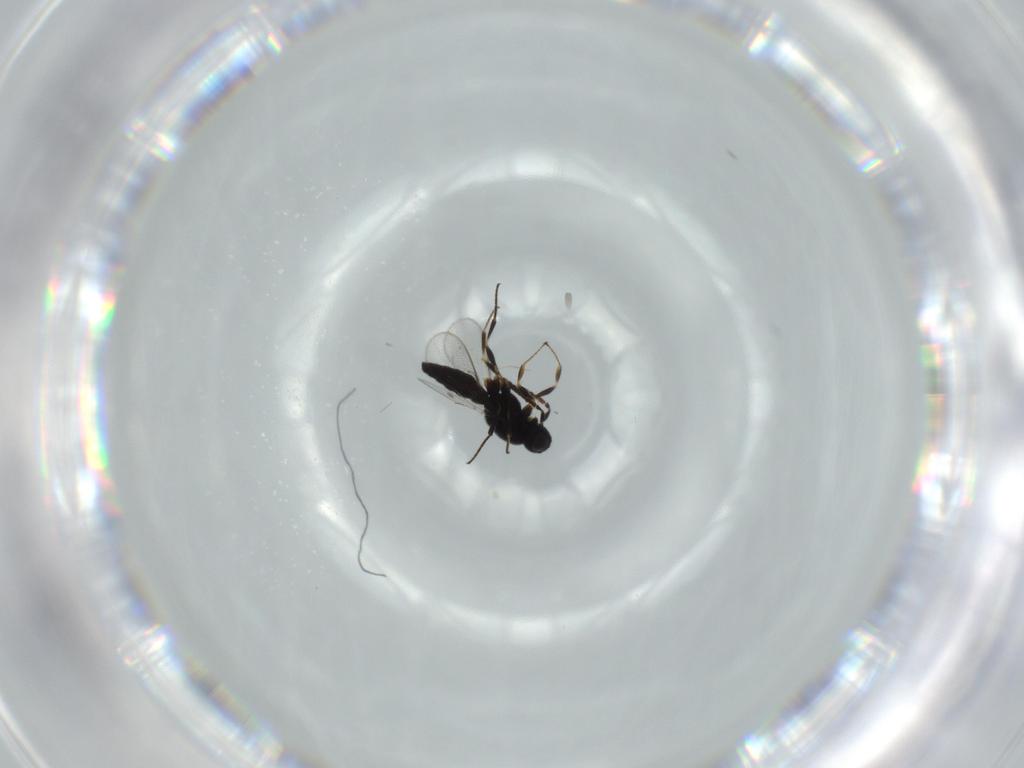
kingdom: Animalia
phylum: Arthropoda
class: Insecta
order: Hymenoptera
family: Scelionidae
